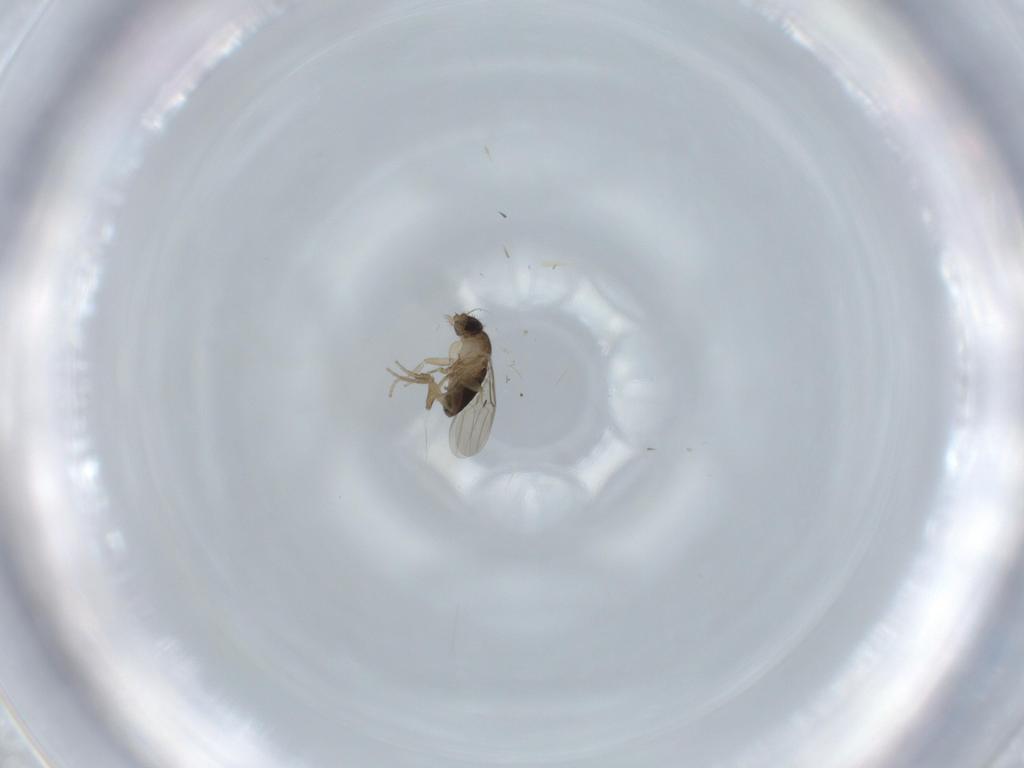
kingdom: Animalia
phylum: Arthropoda
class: Insecta
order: Diptera
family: Phoridae
